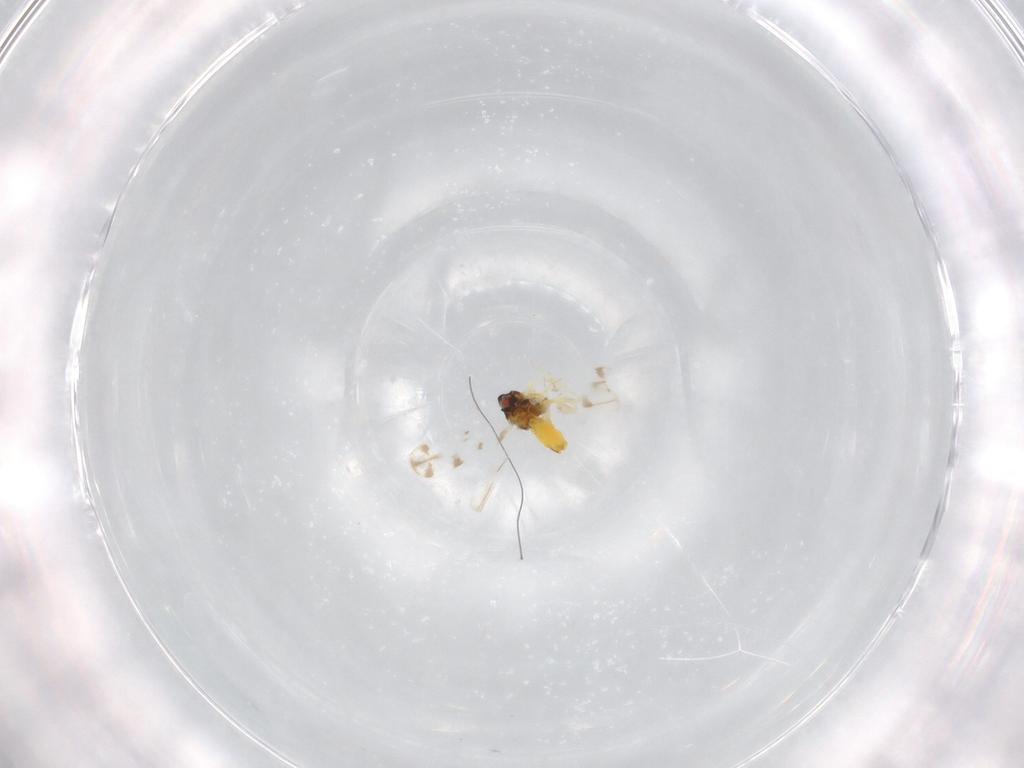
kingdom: Animalia
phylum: Arthropoda
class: Insecta
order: Hemiptera
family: Aleyrodidae
